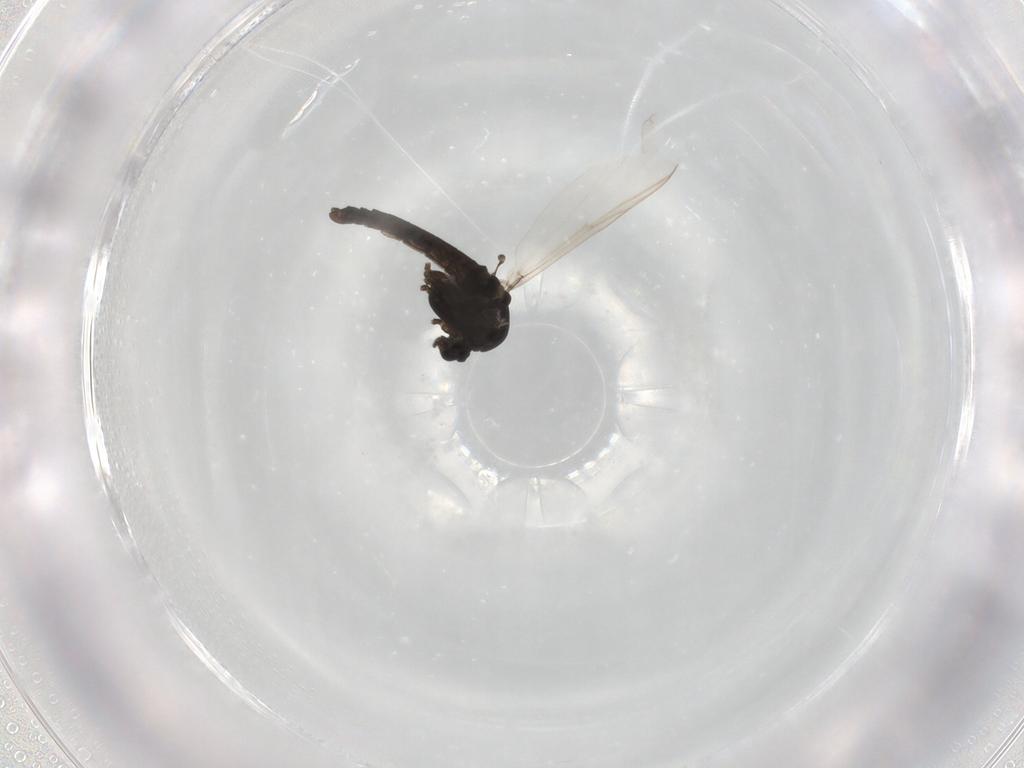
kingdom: Animalia
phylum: Arthropoda
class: Insecta
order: Diptera
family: Chironomidae
